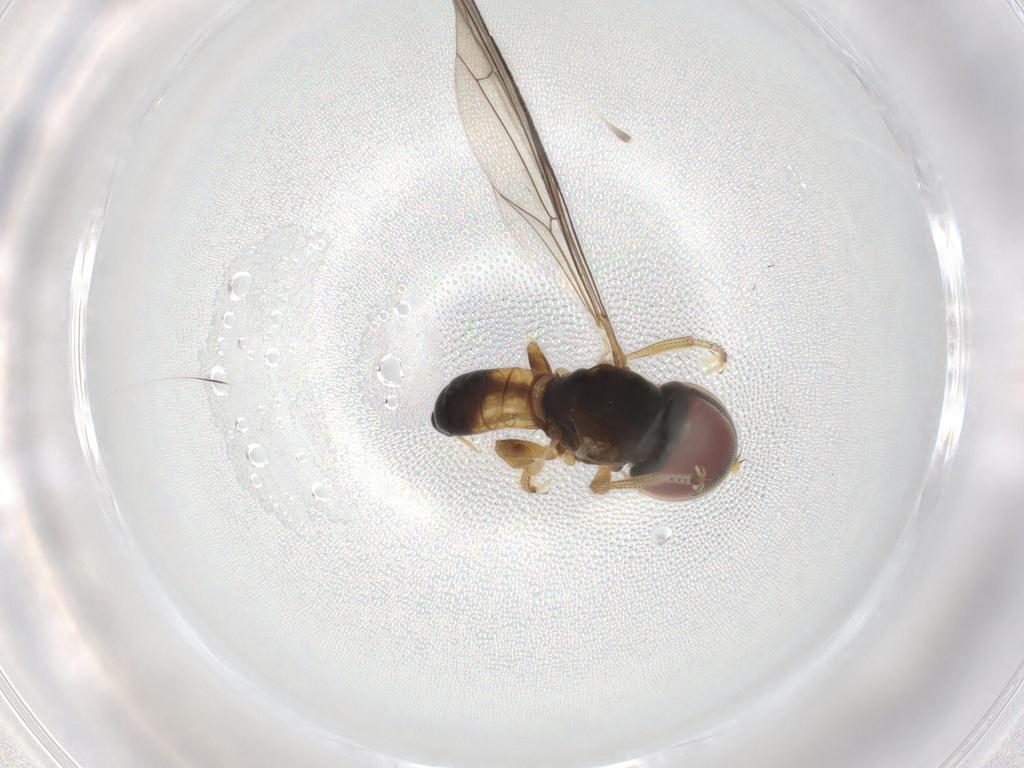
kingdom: Animalia
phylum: Arthropoda
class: Insecta
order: Diptera
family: Pipunculidae
